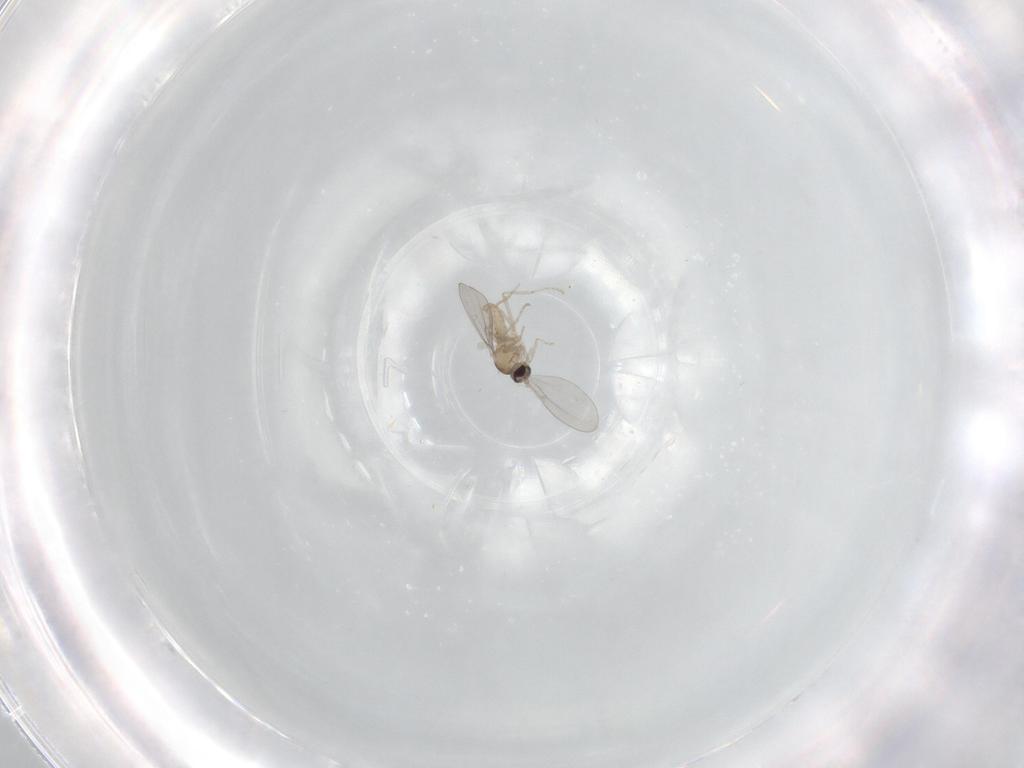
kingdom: Animalia
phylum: Arthropoda
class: Insecta
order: Diptera
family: Cecidomyiidae
